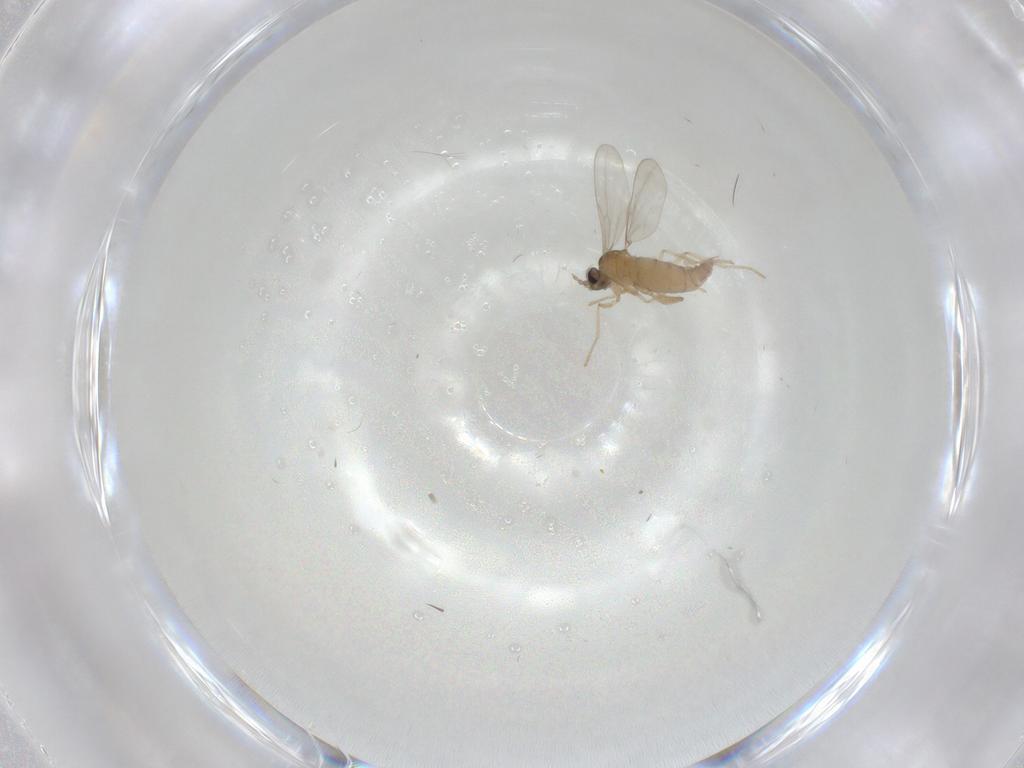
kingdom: Animalia
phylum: Arthropoda
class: Insecta
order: Diptera
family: Cecidomyiidae
